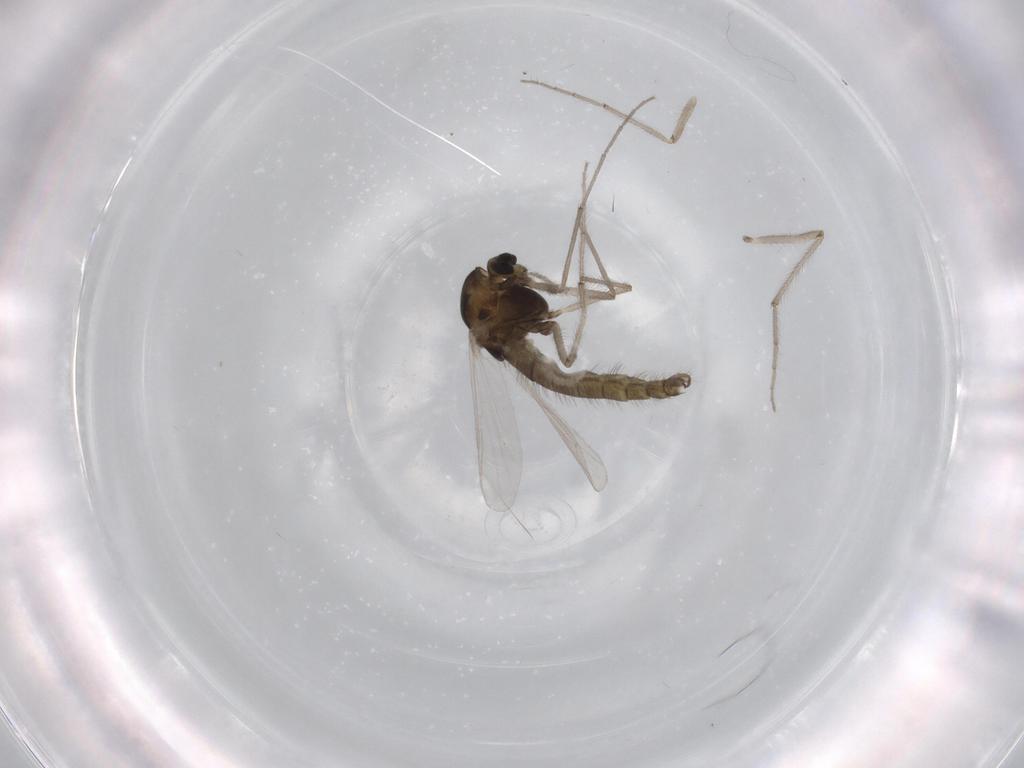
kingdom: Animalia
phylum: Arthropoda
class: Insecta
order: Diptera
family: Chironomidae
